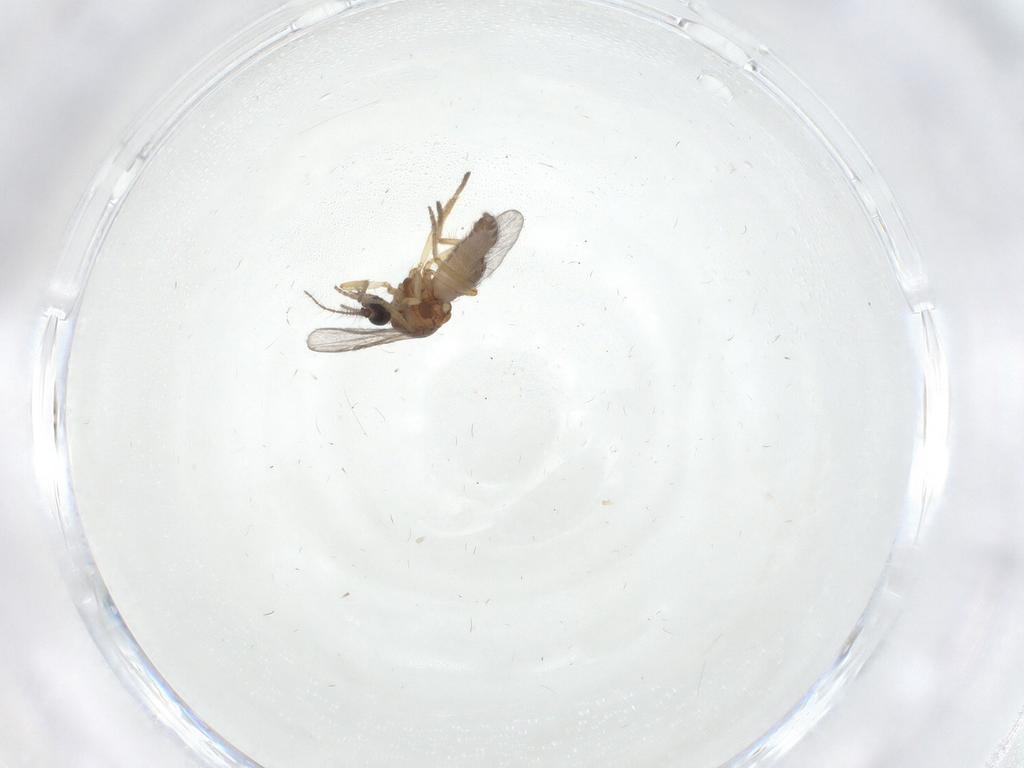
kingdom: Animalia
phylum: Arthropoda
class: Insecta
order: Diptera
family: Ceratopogonidae
